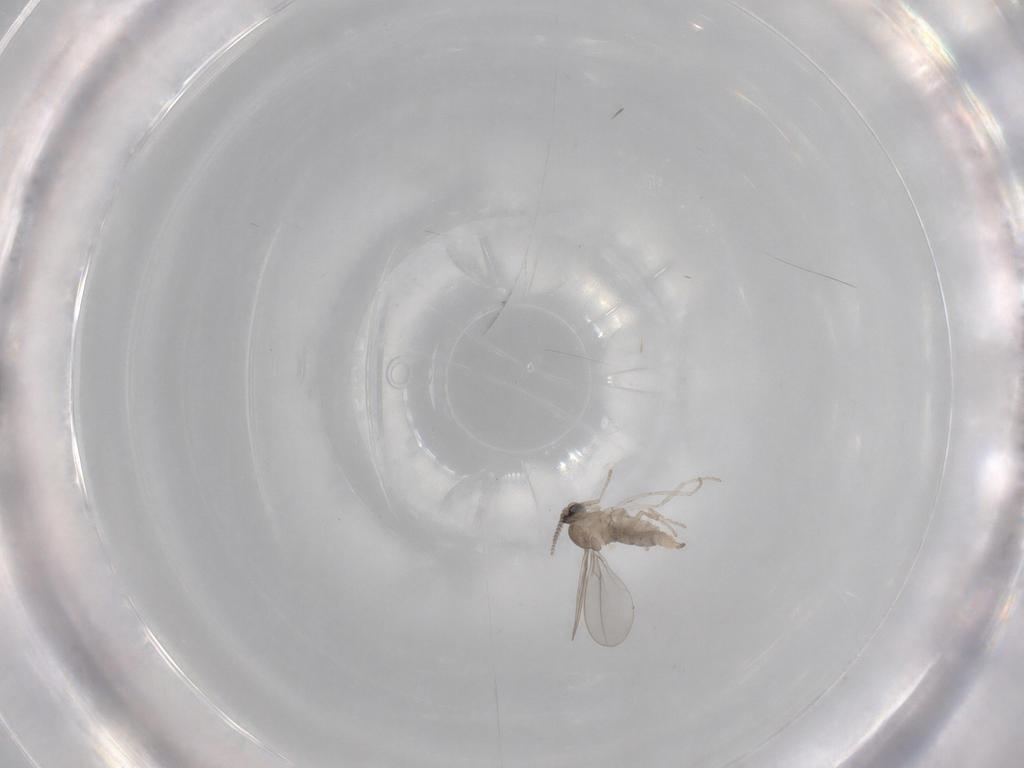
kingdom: Animalia
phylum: Arthropoda
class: Insecta
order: Diptera
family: Cecidomyiidae
